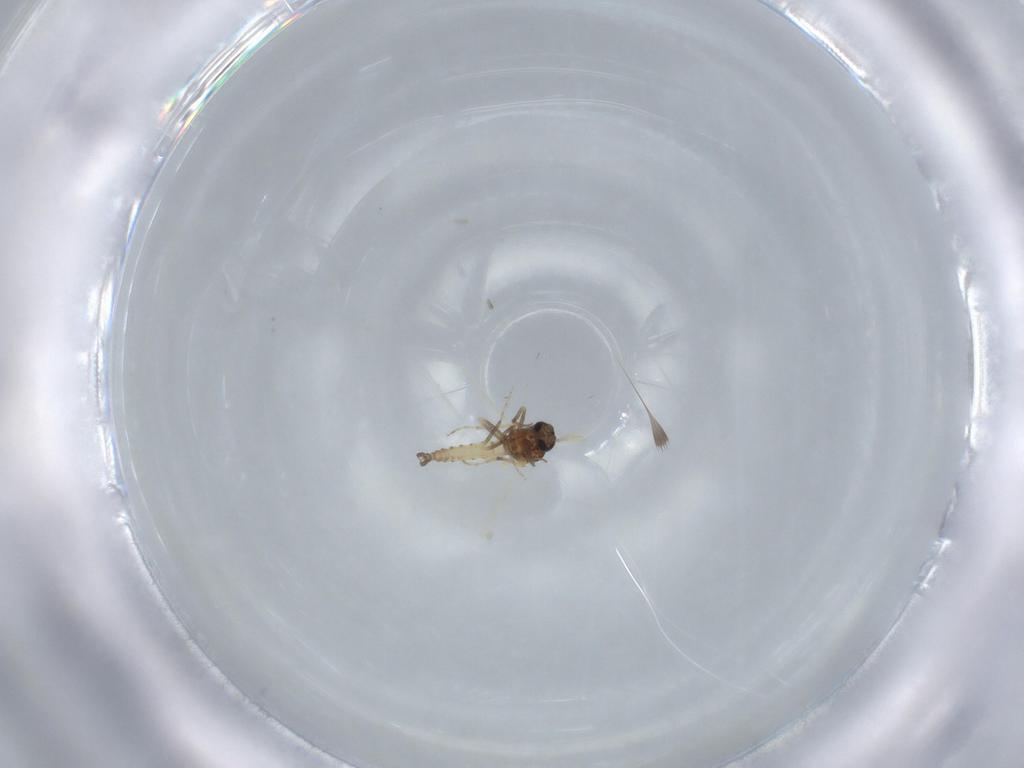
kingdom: Animalia
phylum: Arthropoda
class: Insecta
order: Diptera
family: Ceratopogonidae
